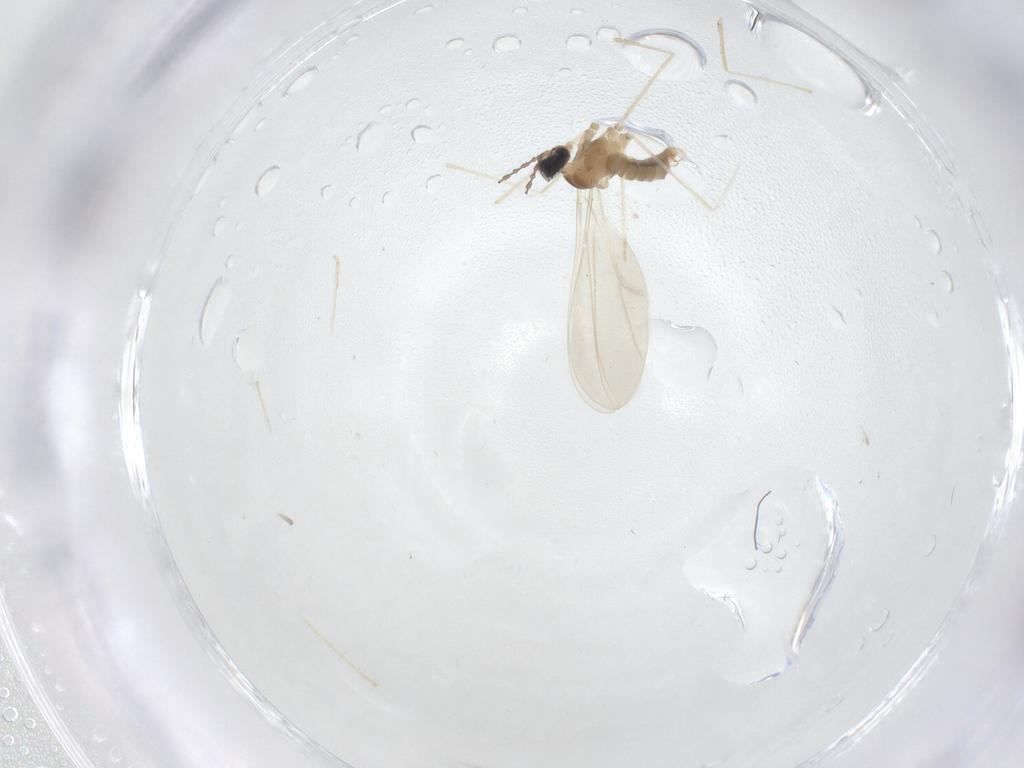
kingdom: Animalia
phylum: Arthropoda
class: Insecta
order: Diptera
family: Cecidomyiidae
